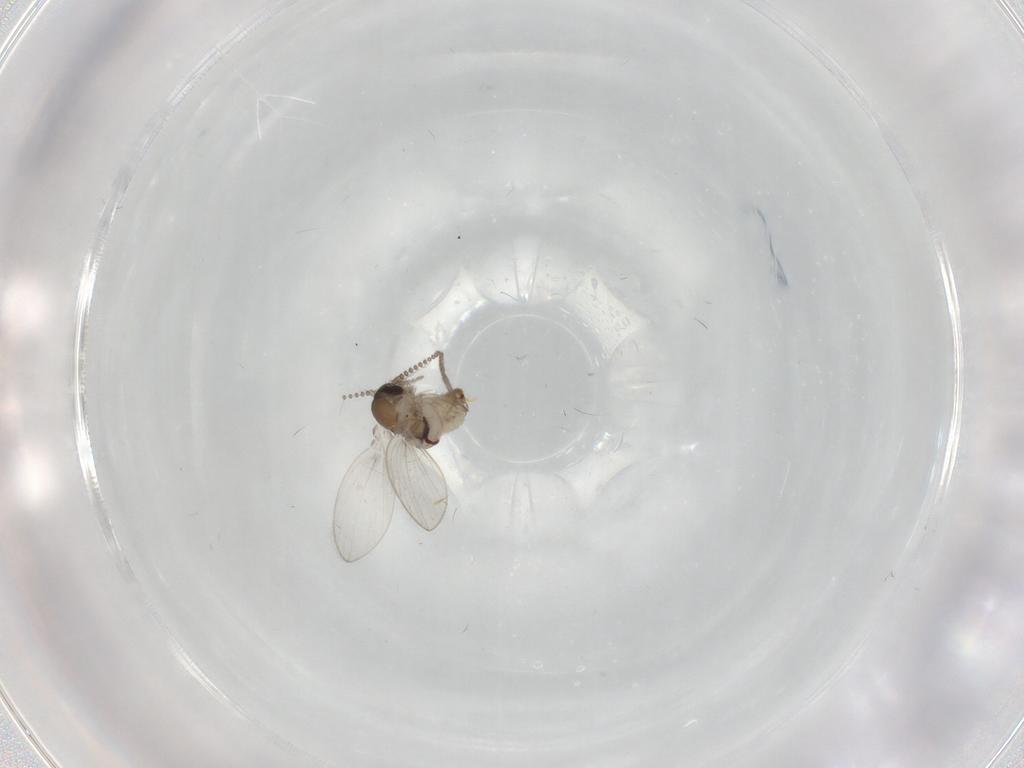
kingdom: Animalia
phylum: Arthropoda
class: Insecta
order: Diptera
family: Psychodidae
